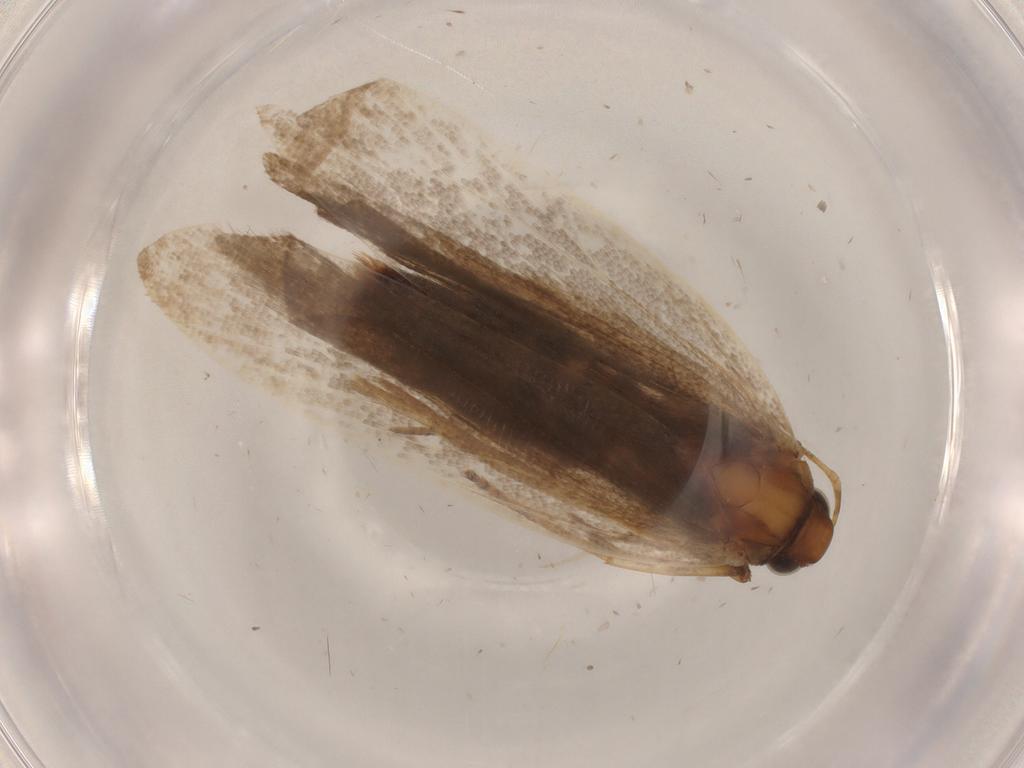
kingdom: Animalia
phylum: Arthropoda
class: Insecta
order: Lepidoptera
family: Gelechiidae
